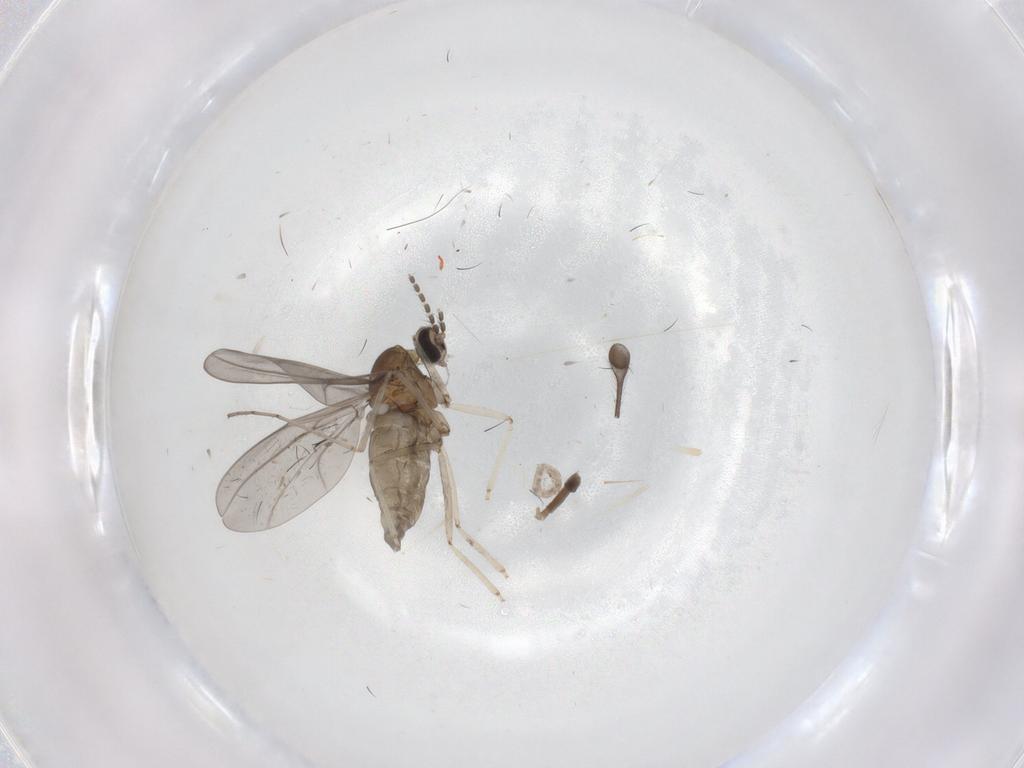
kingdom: Animalia
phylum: Arthropoda
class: Insecta
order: Diptera
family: Cecidomyiidae
